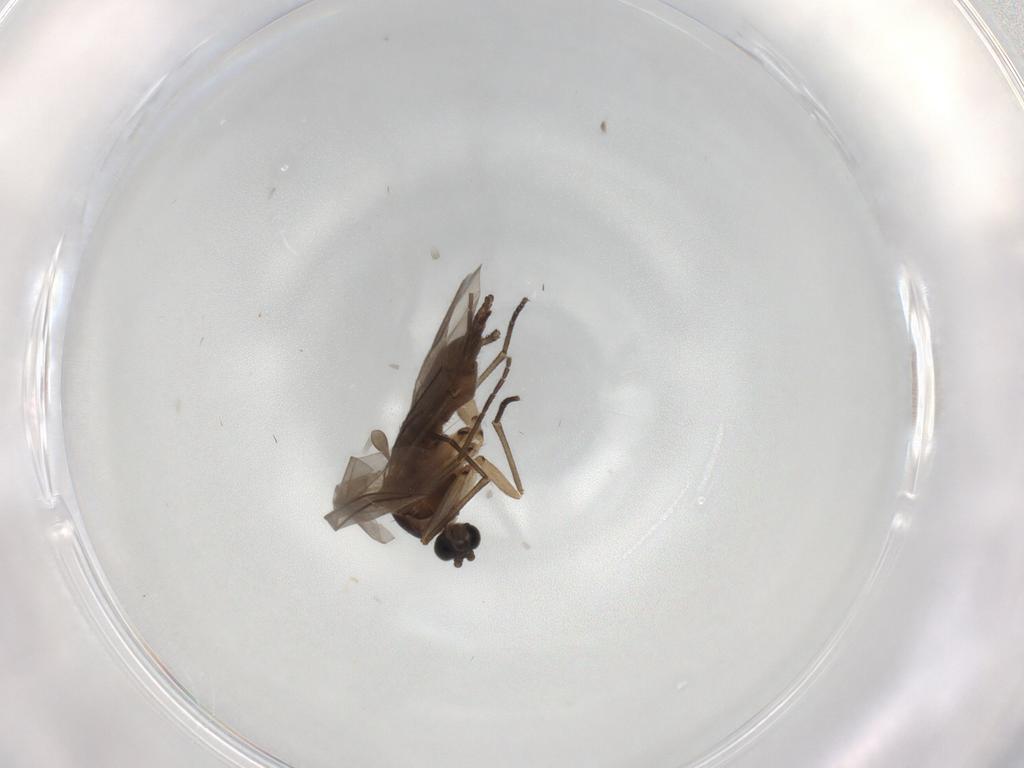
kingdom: Animalia
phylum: Arthropoda
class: Insecta
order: Diptera
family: Sciaridae
